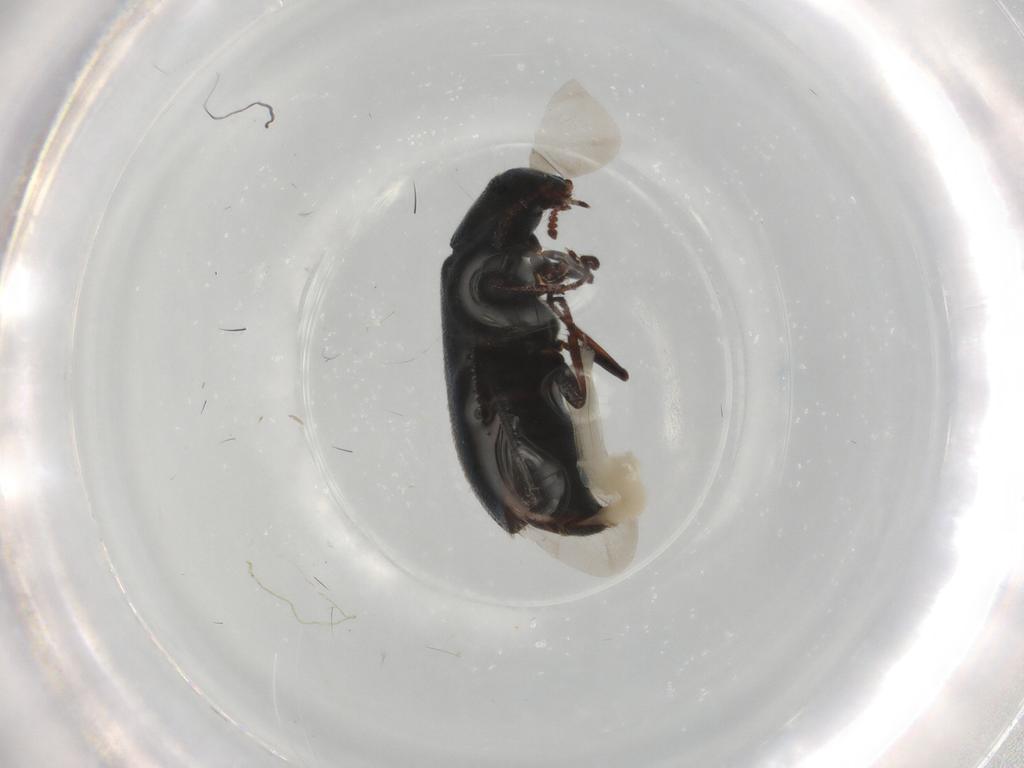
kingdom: Animalia
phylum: Arthropoda
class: Insecta
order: Coleoptera
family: Melyridae
